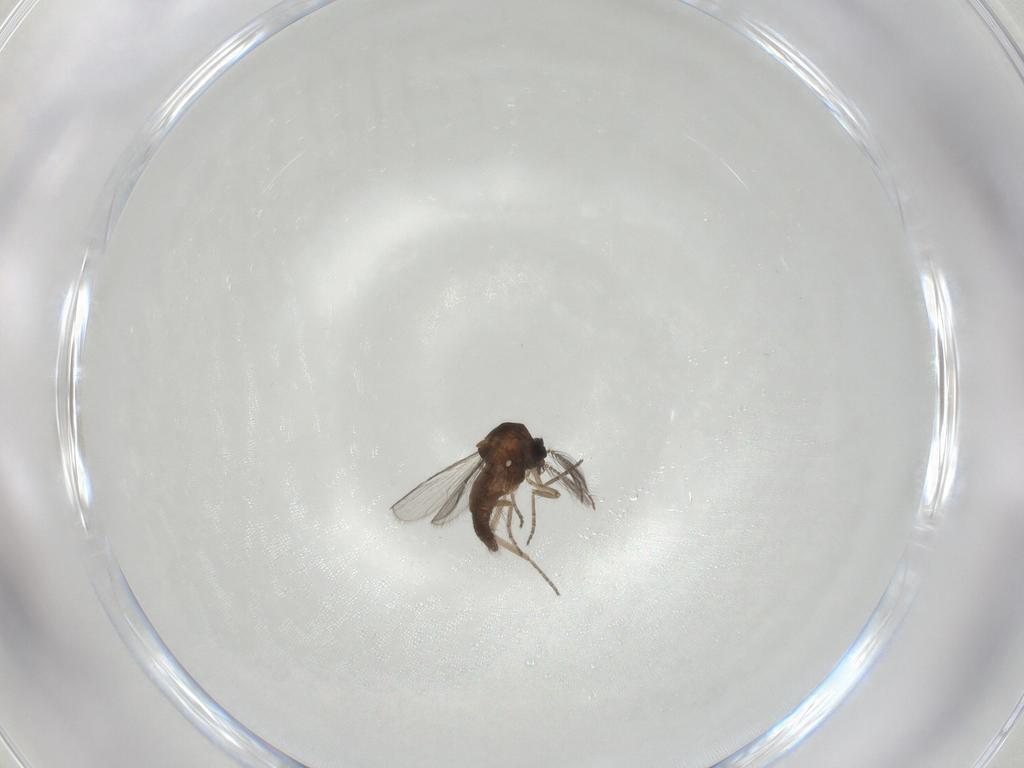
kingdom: Animalia
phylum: Arthropoda
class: Insecta
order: Diptera
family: Ceratopogonidae
